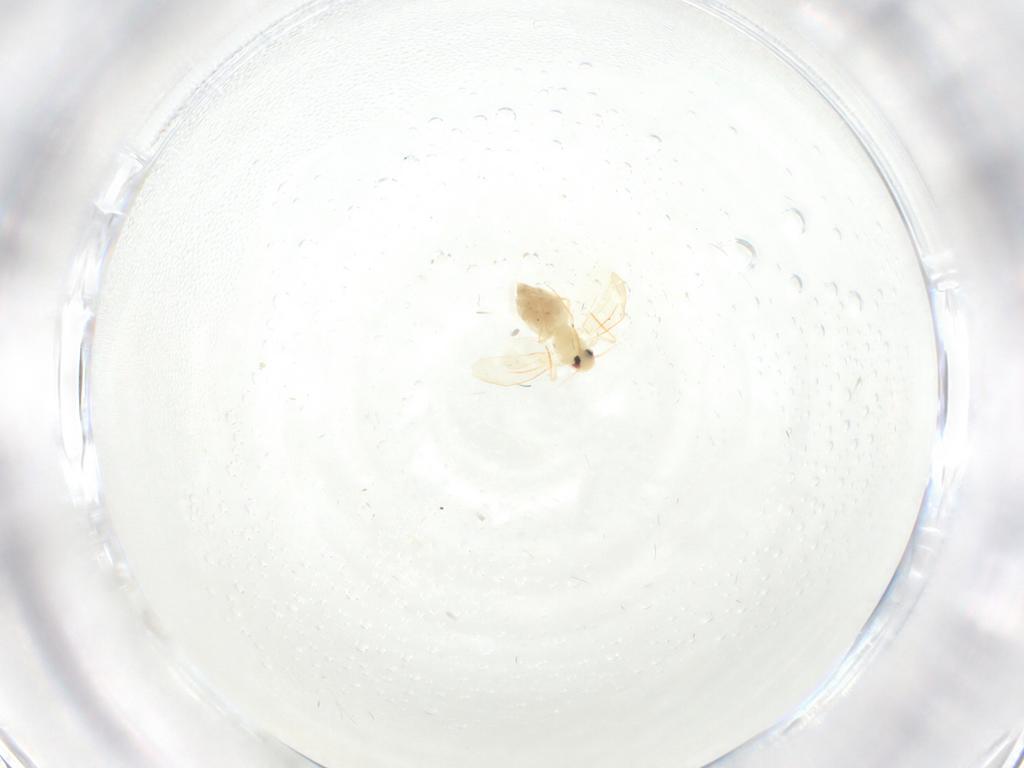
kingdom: Animalia
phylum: Arthropoda
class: Insecta
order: Hemiptera
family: Aleyrodidae
